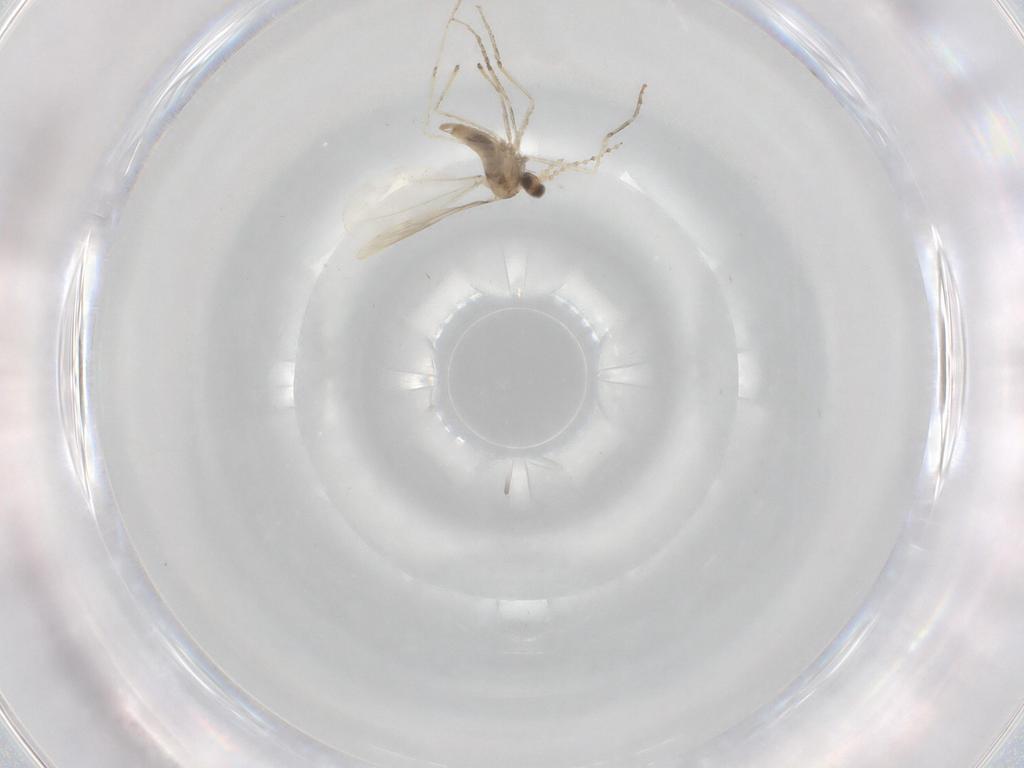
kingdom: Animalia
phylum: Arthropoda
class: Insecta
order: Diptera
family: Cecidomyiidae
